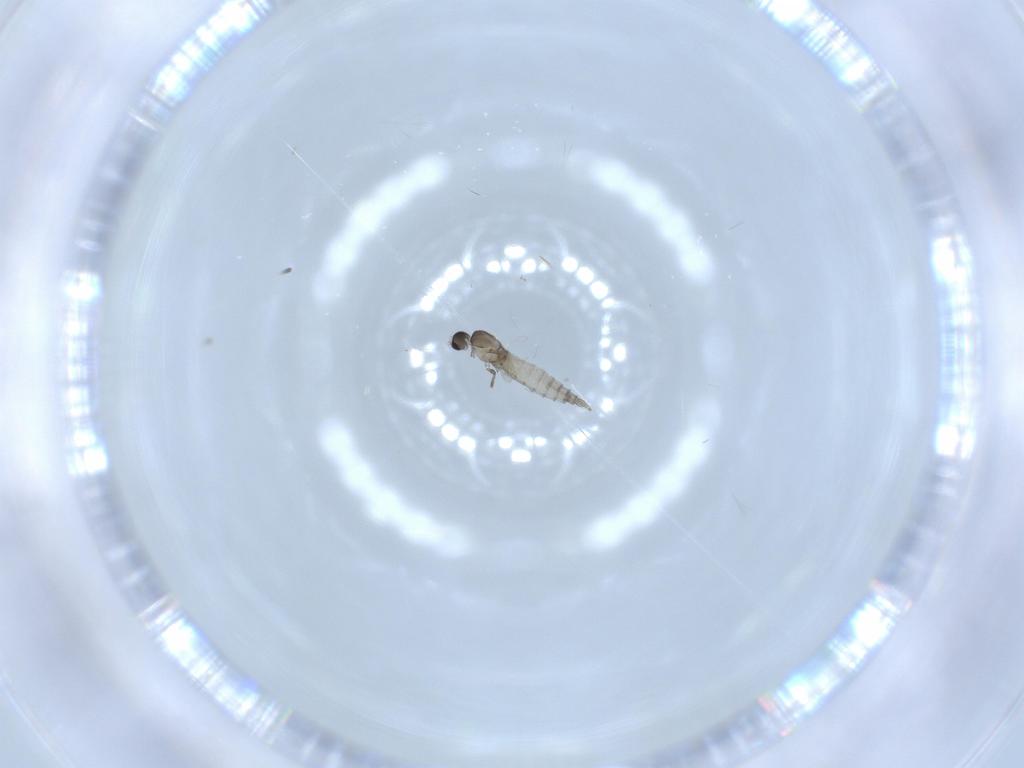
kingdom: Animalia
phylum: Arthropoda
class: Insecta
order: Diptera
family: Cecidomyiidae
